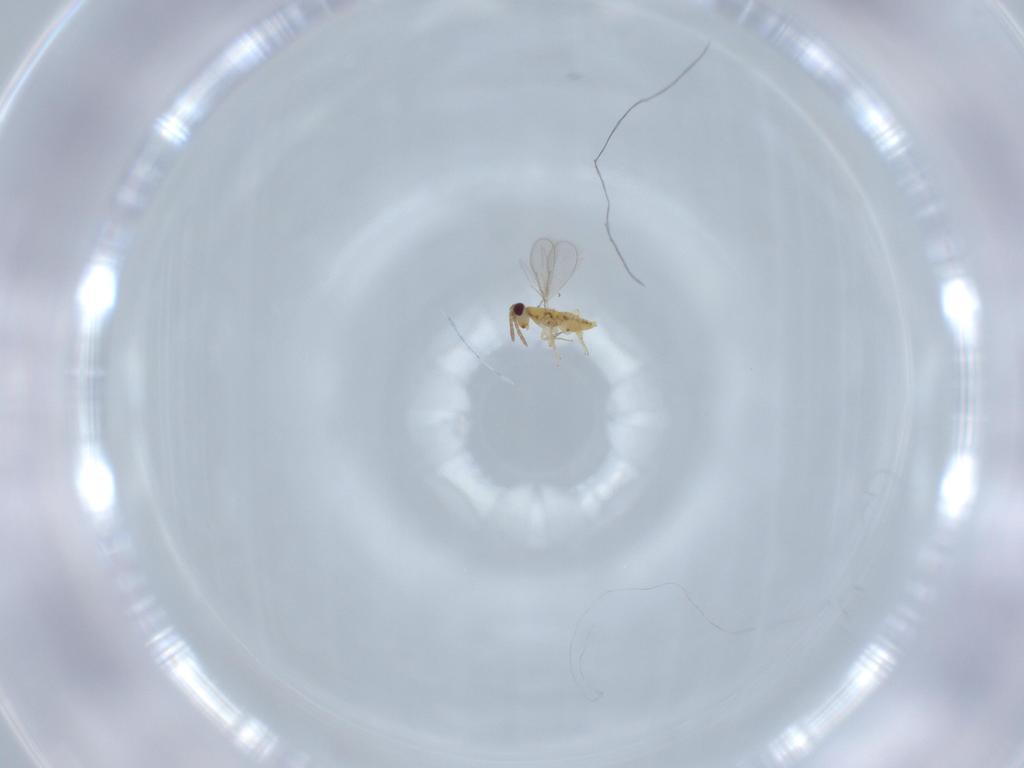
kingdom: Animalia
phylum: Arthropoda
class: Insecta
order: Hymenoptera
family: Aphelinidae
